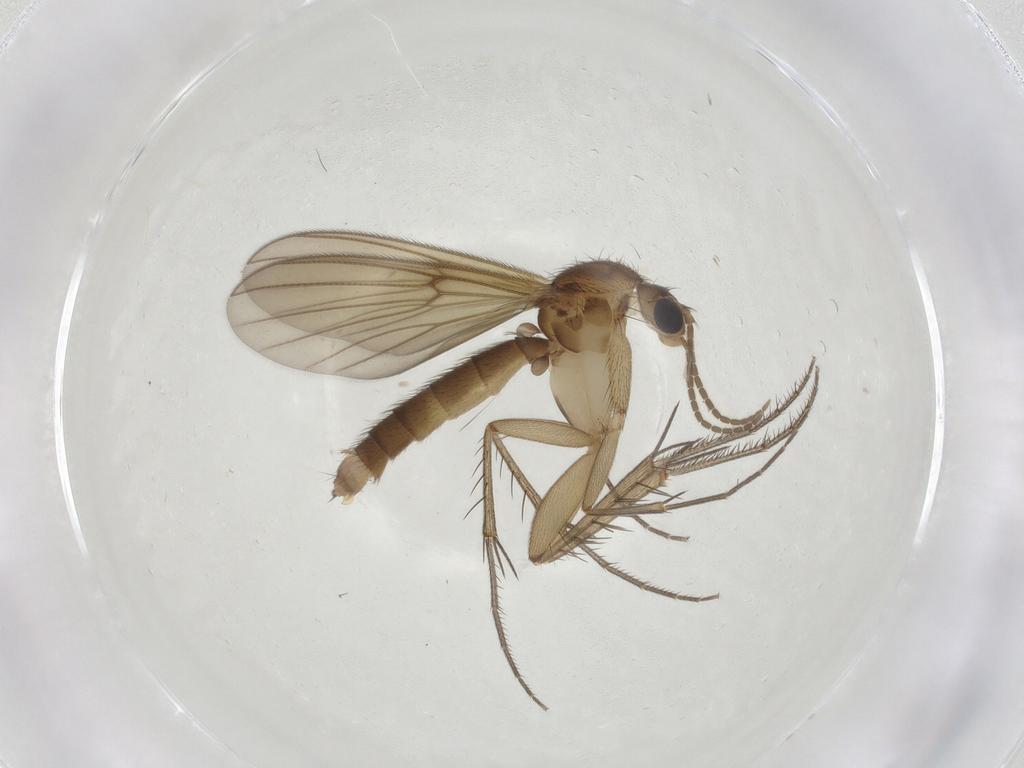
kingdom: Animalia
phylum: Arthropoda
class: Insecta
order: Diptera
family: Mycetophilidae
